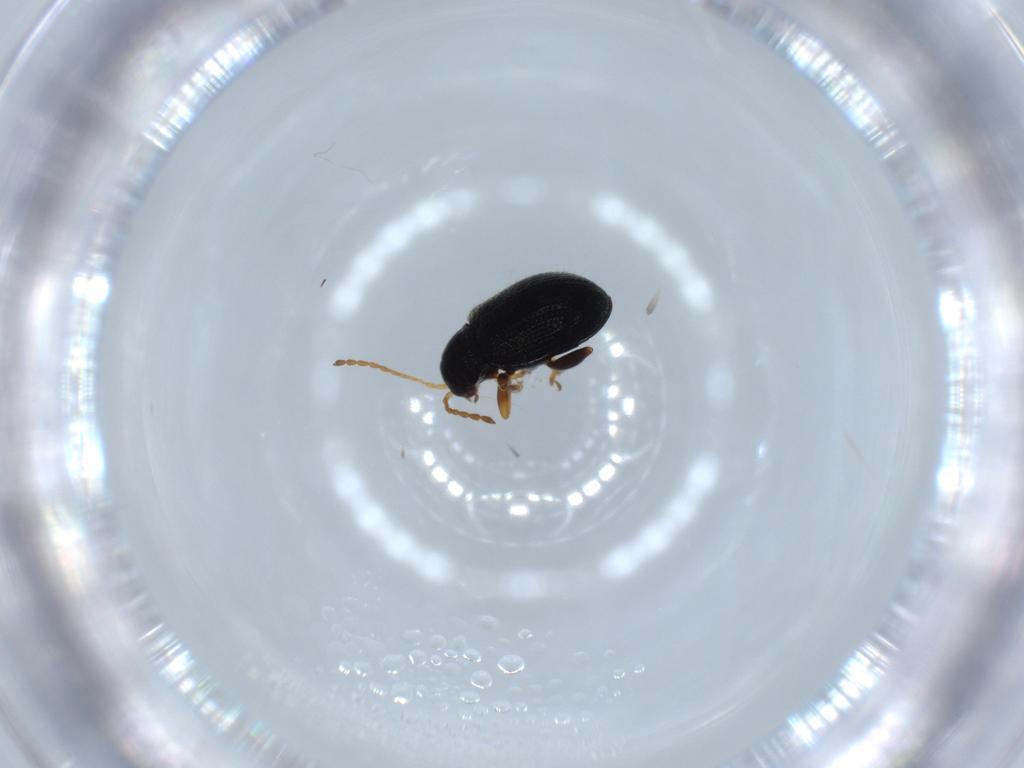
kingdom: Animalia
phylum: Arthropoda
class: Insecta
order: Coleoptera
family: Chrysomelidae
